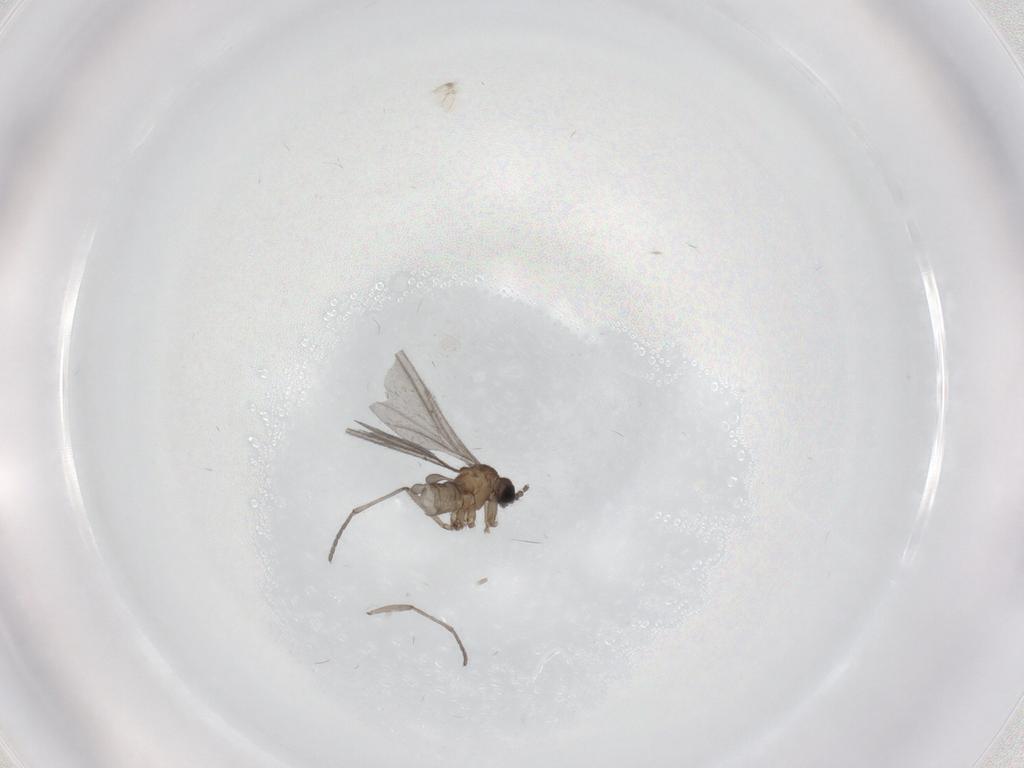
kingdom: Animalia
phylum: Arthropoda
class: Insecta
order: Diptera
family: Sciaridae
